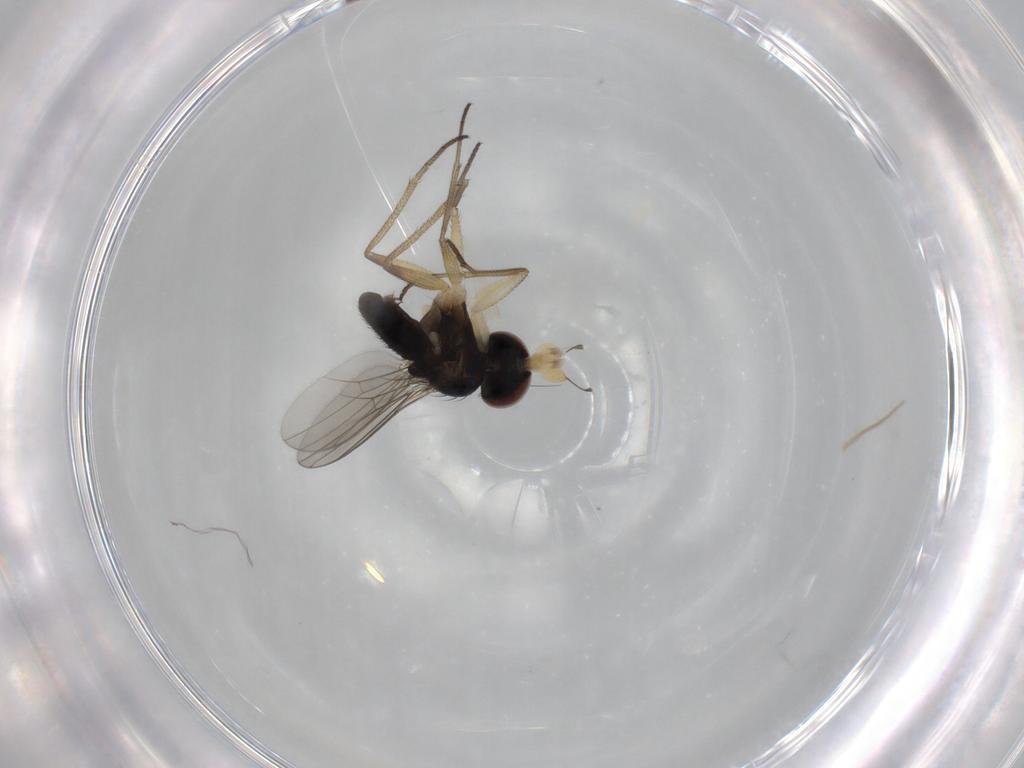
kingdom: Animalia
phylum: Arthropoda
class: Insecta
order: Diptera
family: Dolichopodidae
